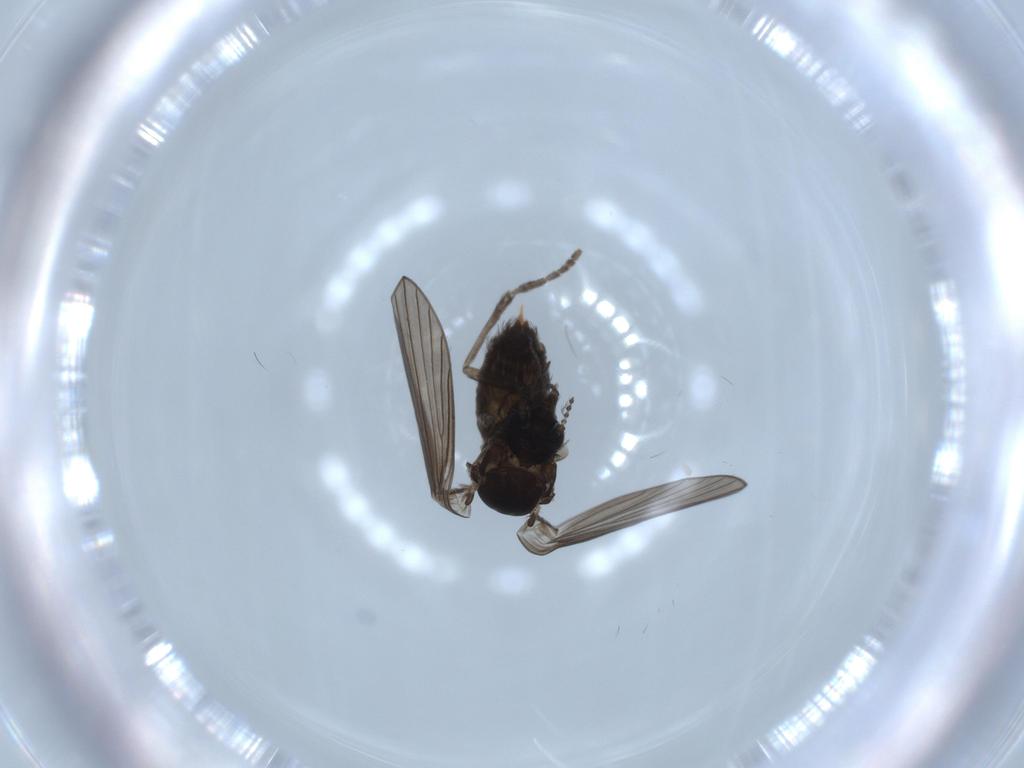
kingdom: Animalia
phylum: Arthropoda
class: Insecta
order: Diptera
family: Psychodidae
